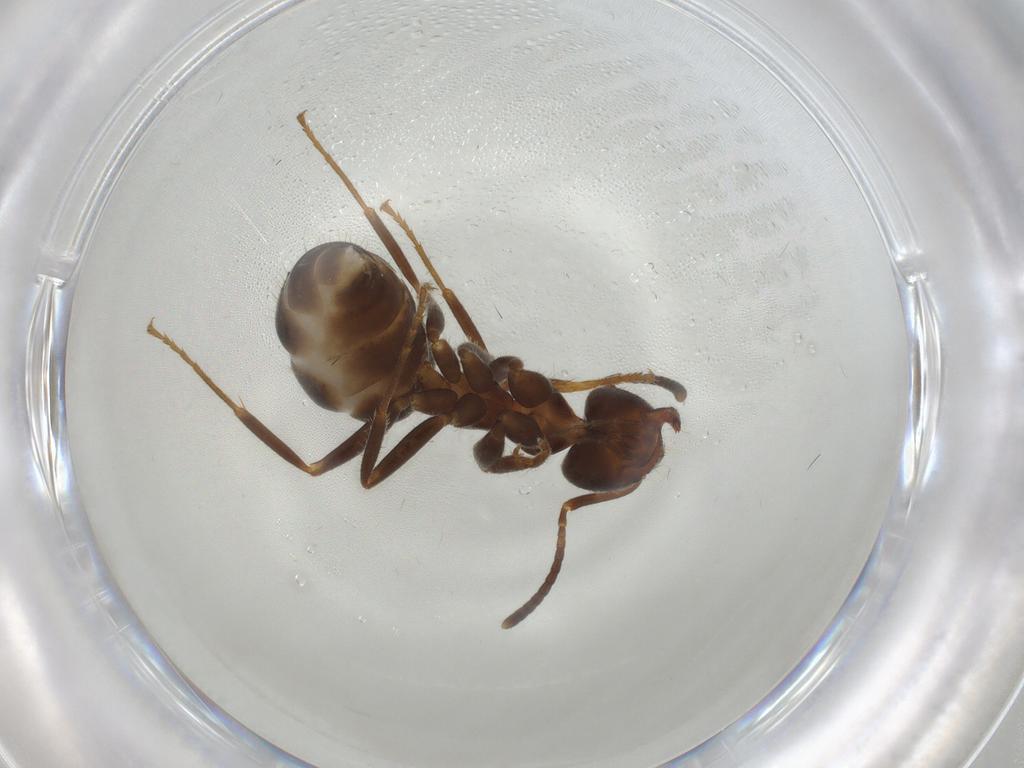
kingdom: Animalia
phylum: Arthropoda
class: Insecta
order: Hymenoptera
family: Formicidae
